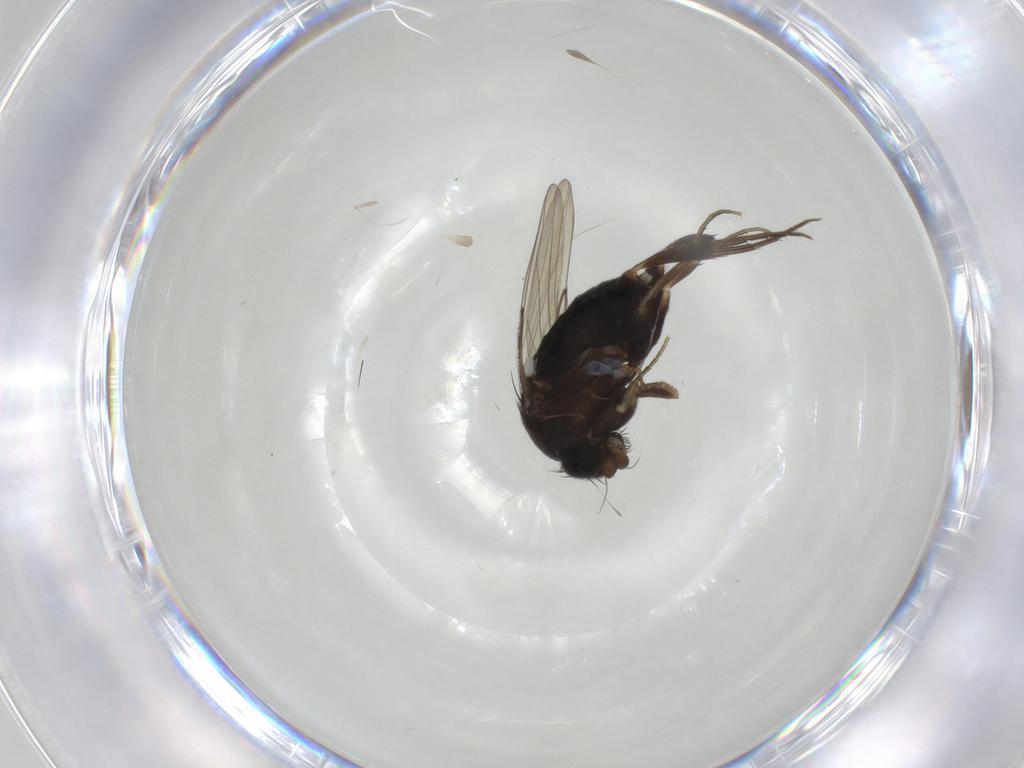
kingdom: Animalia
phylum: Arthropoda
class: Insecta
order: Diptera
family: Phoridae
